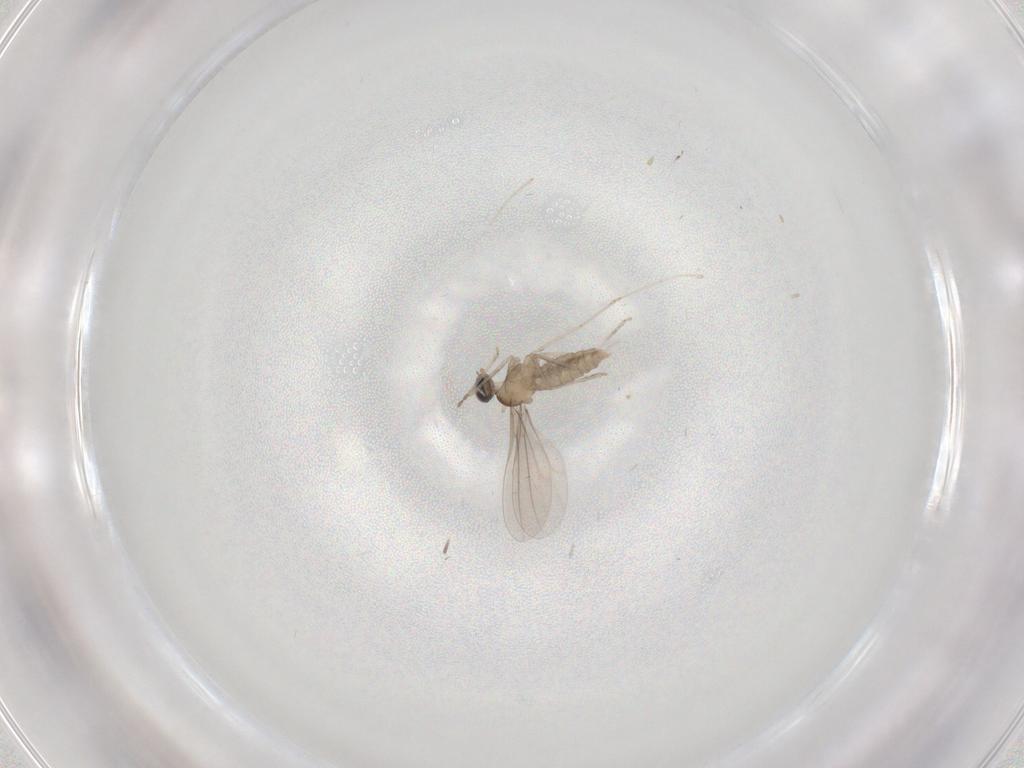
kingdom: Animalia
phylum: Arthropoda
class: Insecta
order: Diptera
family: Cecidomyiidae
